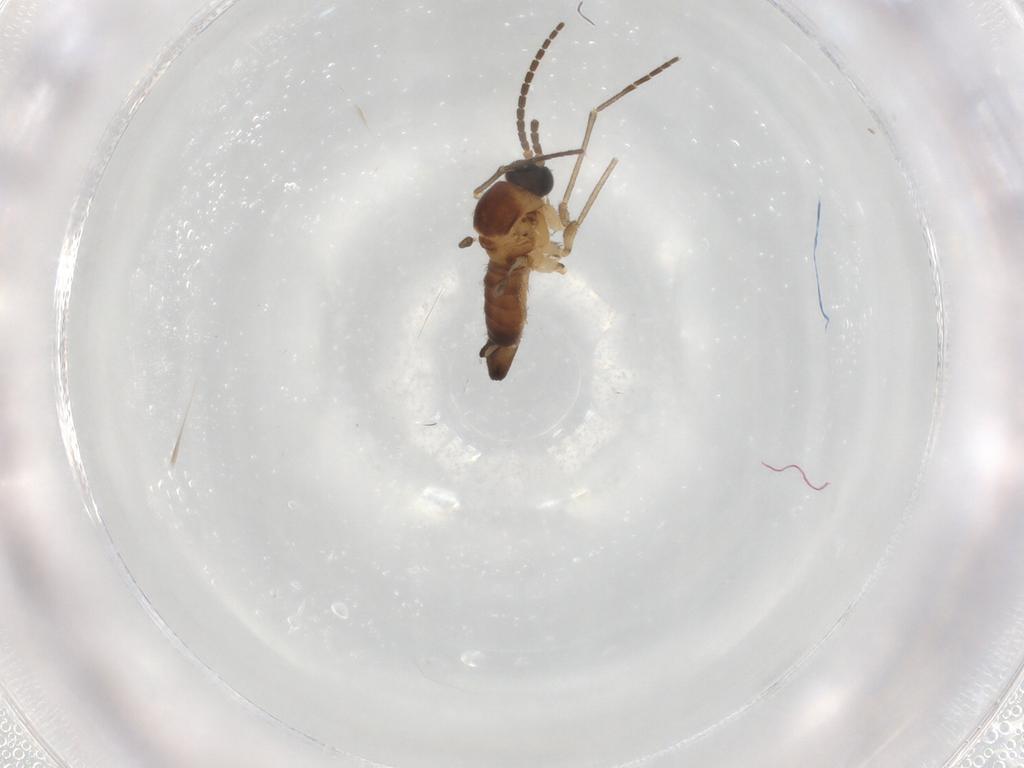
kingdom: Animalia
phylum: Arthropoda
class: Insecta
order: Diptera
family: Sciaridae
